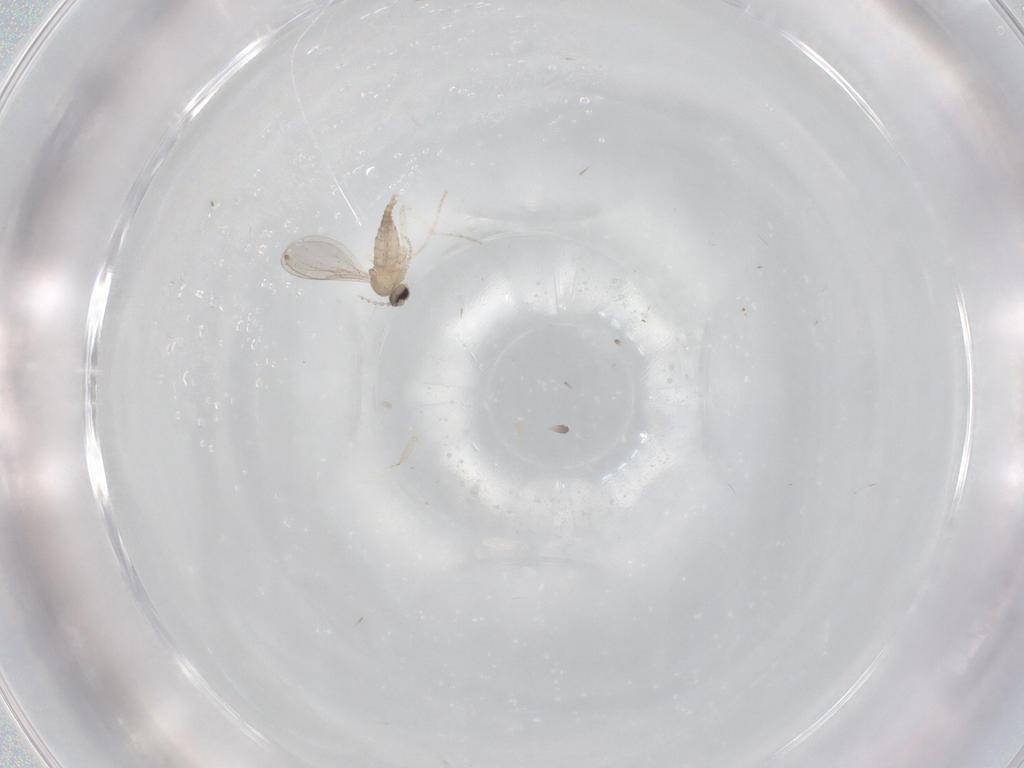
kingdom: Animalia
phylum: Arthropoda
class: Insecta
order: Diptera
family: Cecidomyiidae
